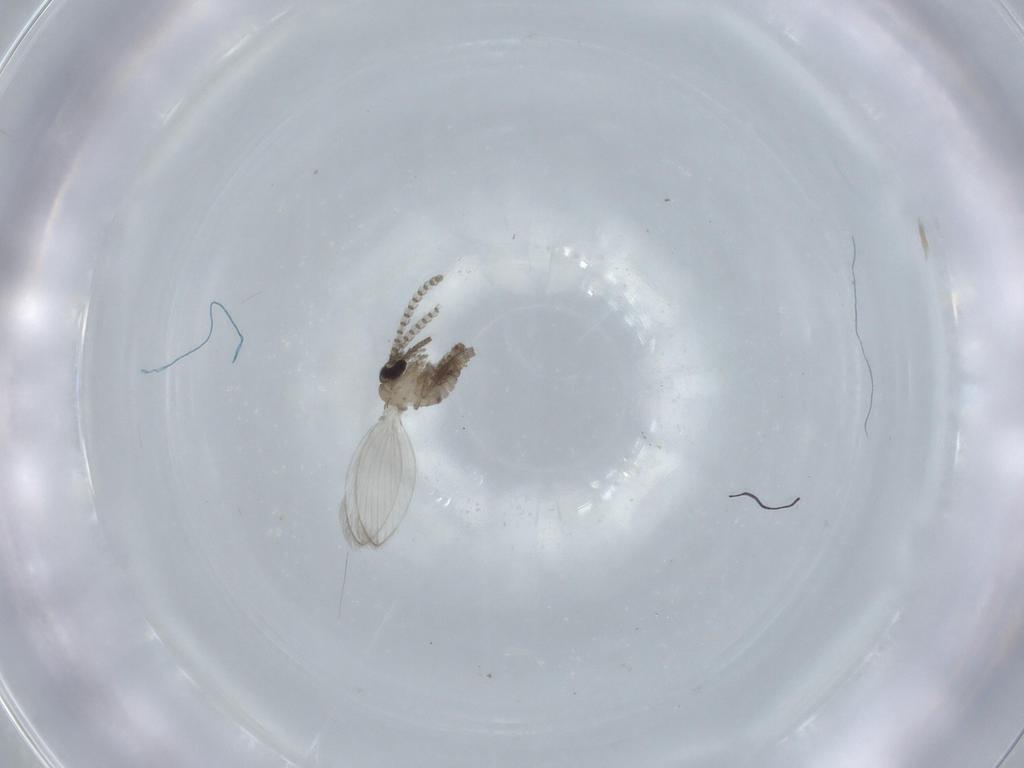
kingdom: Animalia
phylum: Arthropoda
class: Insecta
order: Diptera
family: Psychodidae
